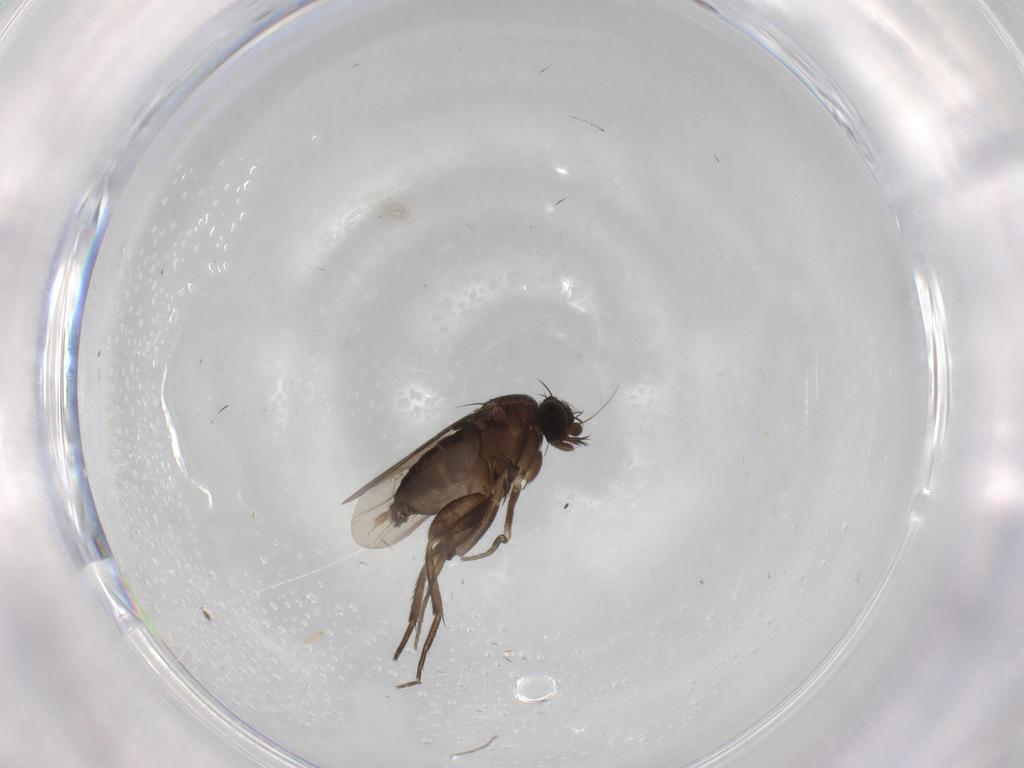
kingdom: Animalia
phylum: Arthropoda
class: Insecta
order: Diptera
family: Phoridae
